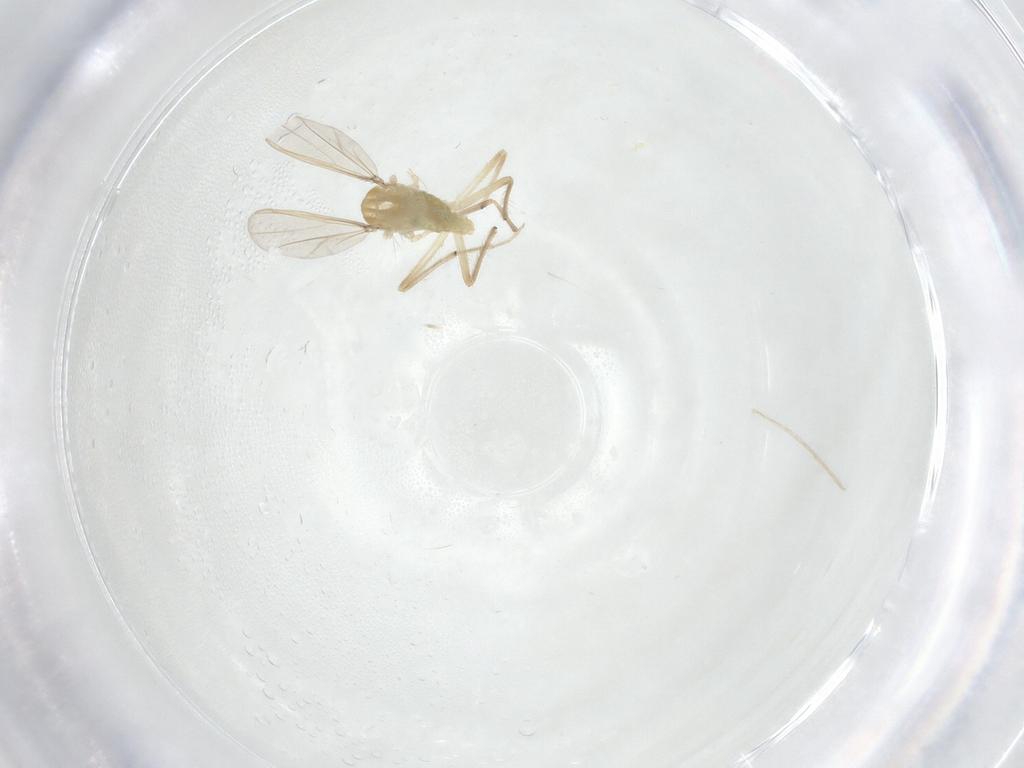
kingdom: Animalia
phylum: Arthropoda
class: Insecta
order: Diptera
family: Chironomidae
